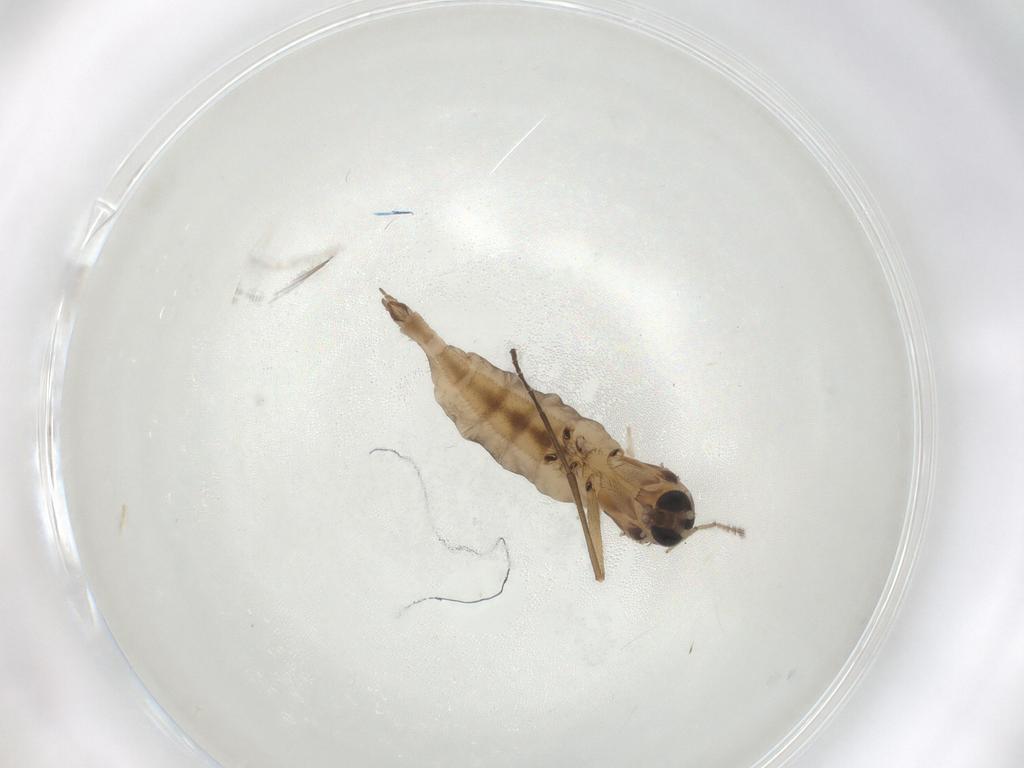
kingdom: Animalia
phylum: Arthropoda
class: Insecta
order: Diptera
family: Sciaridae
